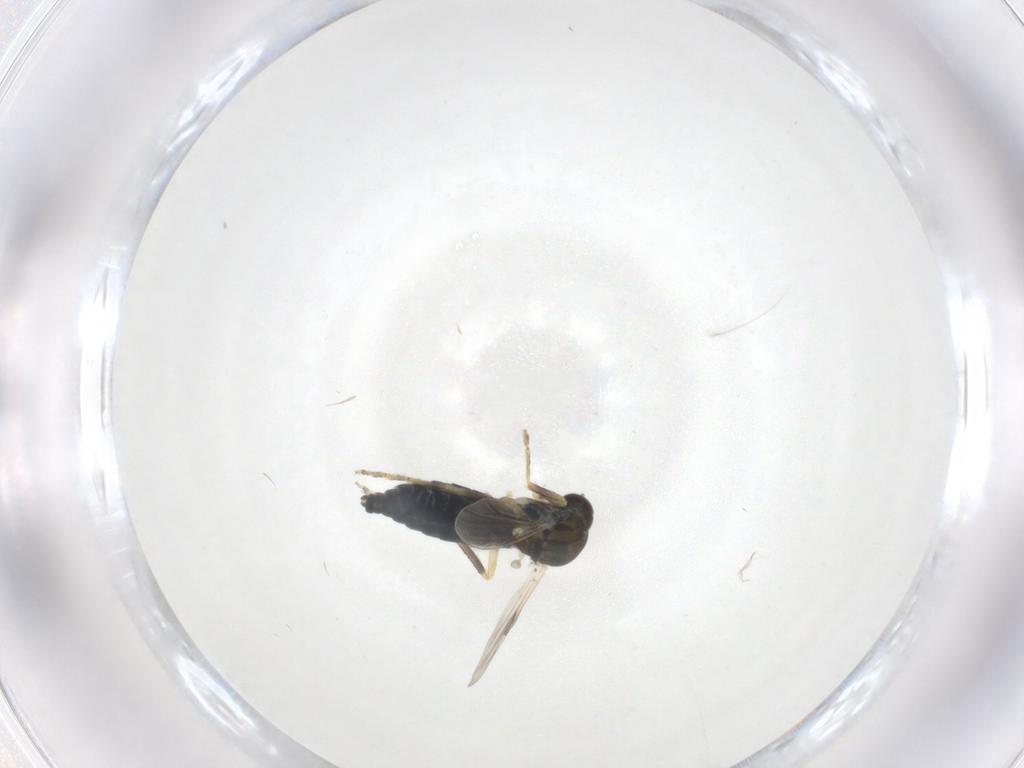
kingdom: Animalia
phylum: Arthropoda
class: Insecta
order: Diptera
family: Ceratopogonidae
